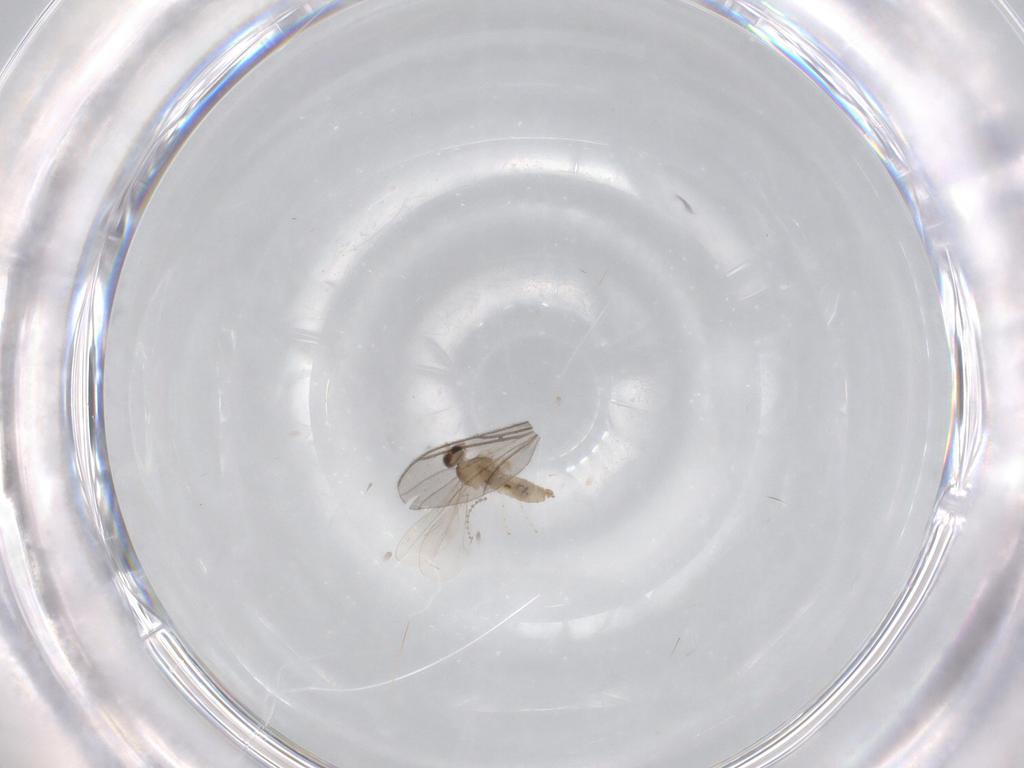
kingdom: Animalia
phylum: Arthropoda
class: Insecta
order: Diptera
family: Cecidomyiidae
